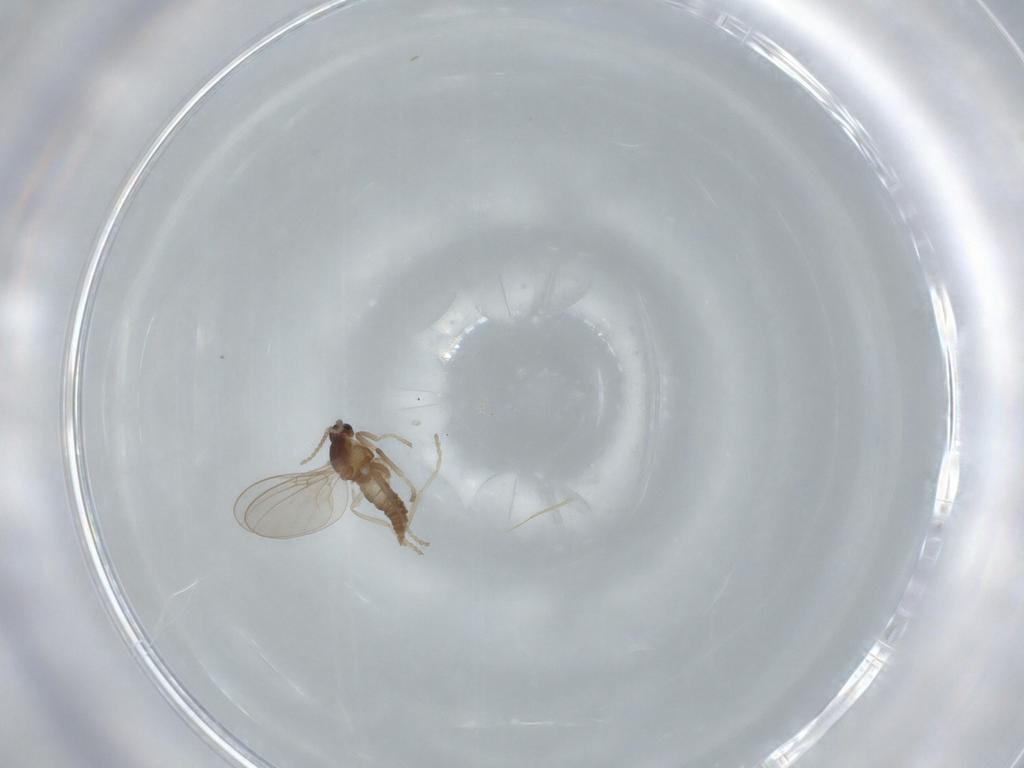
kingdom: Animalia
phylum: Arthropoda
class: Insecta
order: Diptera
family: Cecidomyiidae
